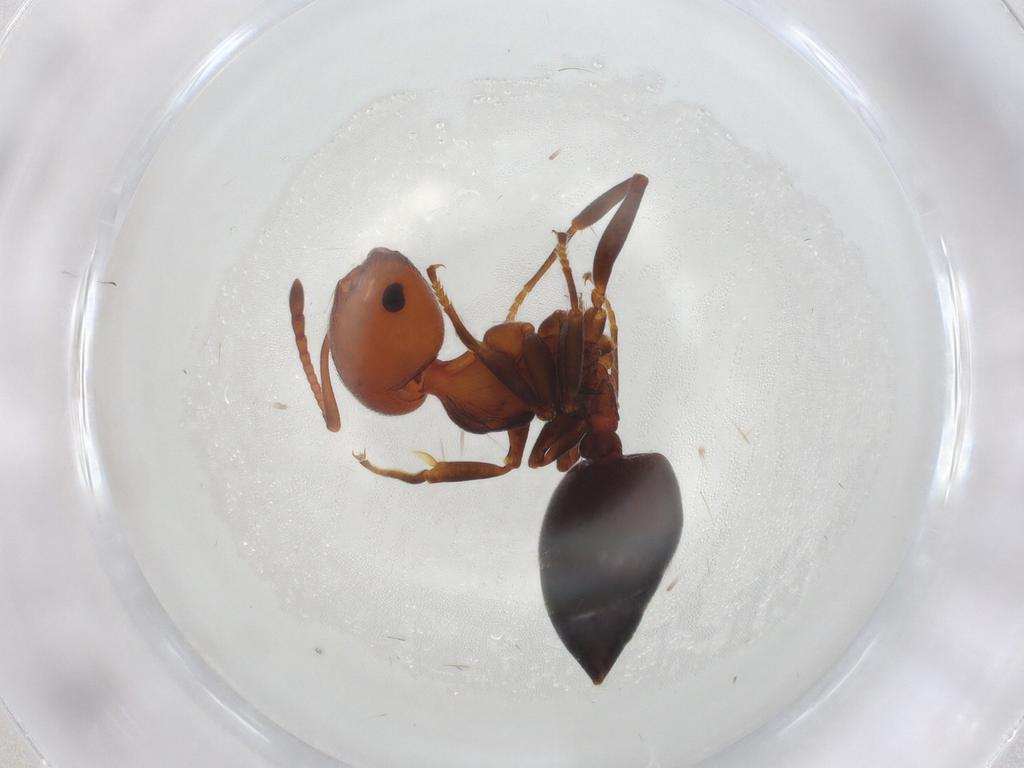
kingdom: Animalia
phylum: Arthropoda
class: Insecta
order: Hymenoptera
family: Formicidae
